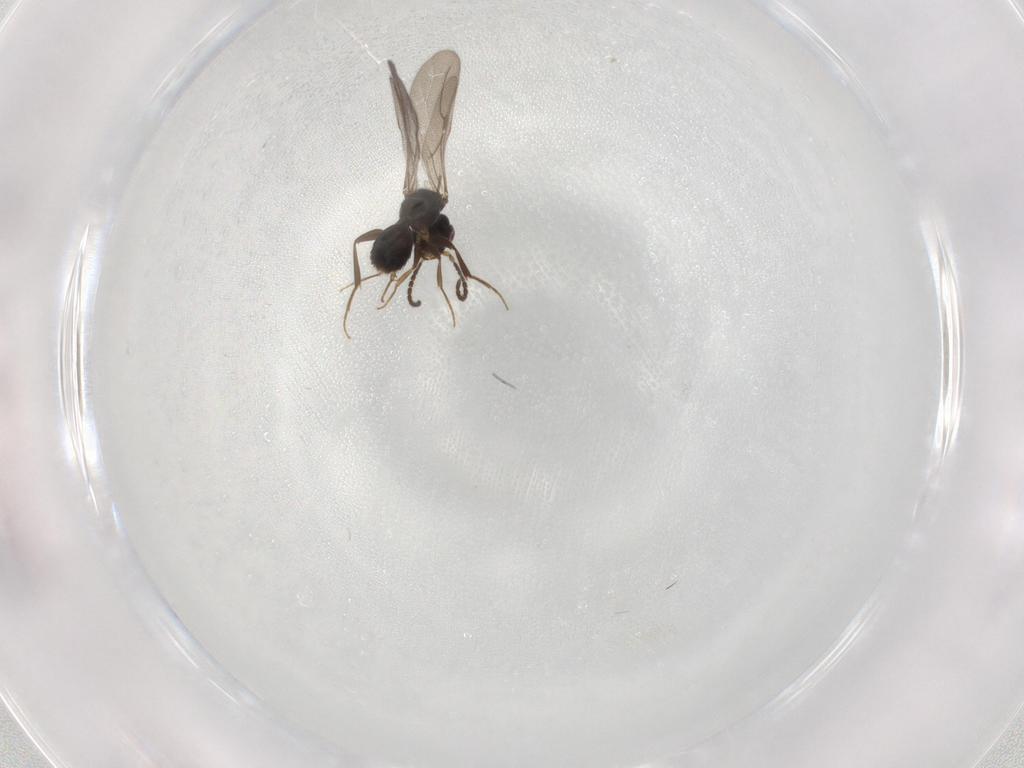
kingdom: Animalia
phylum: Arthropoda
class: Insecta
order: Hymenoptera
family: Bethylidae
